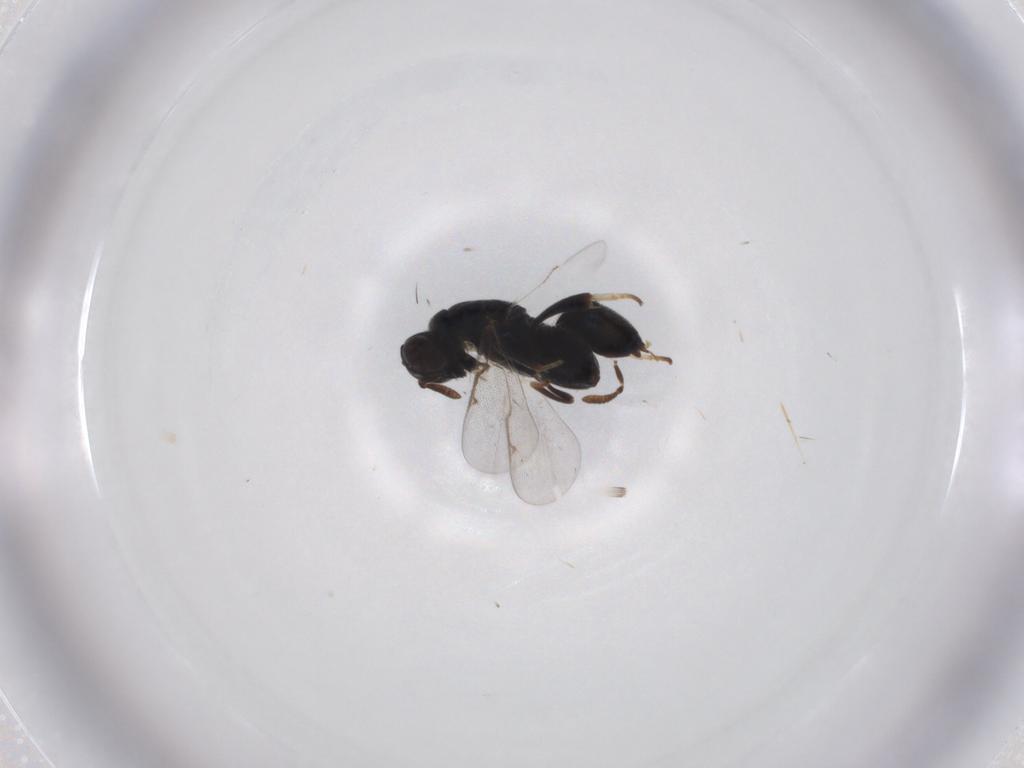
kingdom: Animalia
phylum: Arthropoda
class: Insecta
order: Hymenoptera
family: Torymidae
